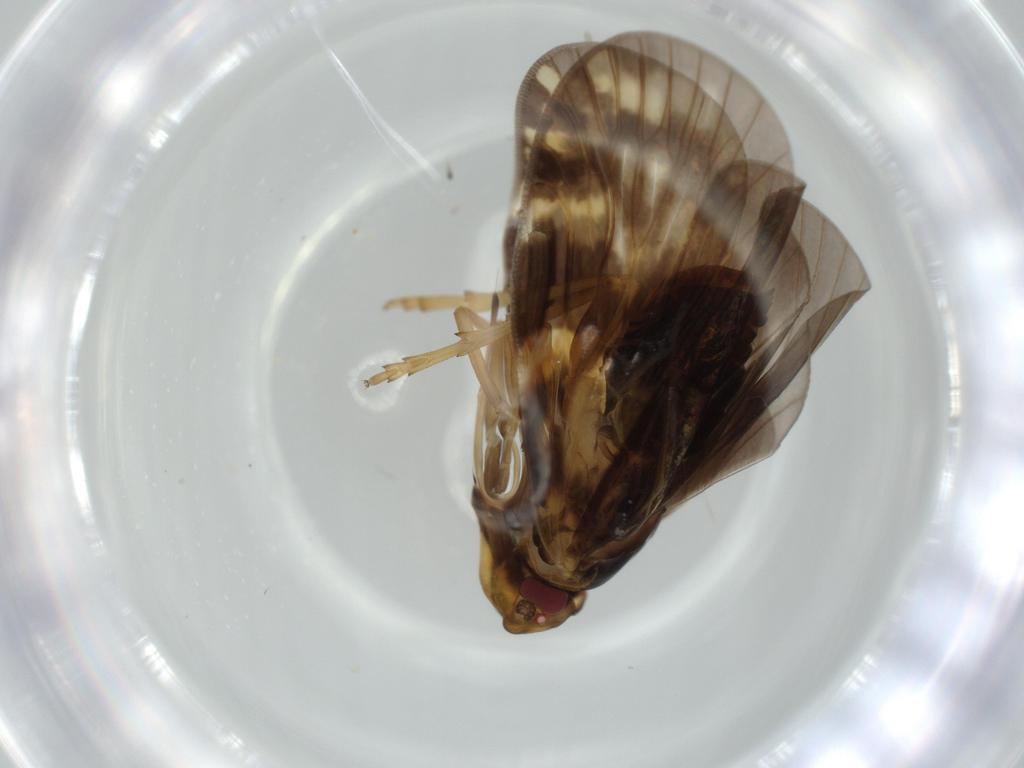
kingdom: Animalia
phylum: Arthropoda
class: Insecta
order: Hemiptera
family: Cixiidae
